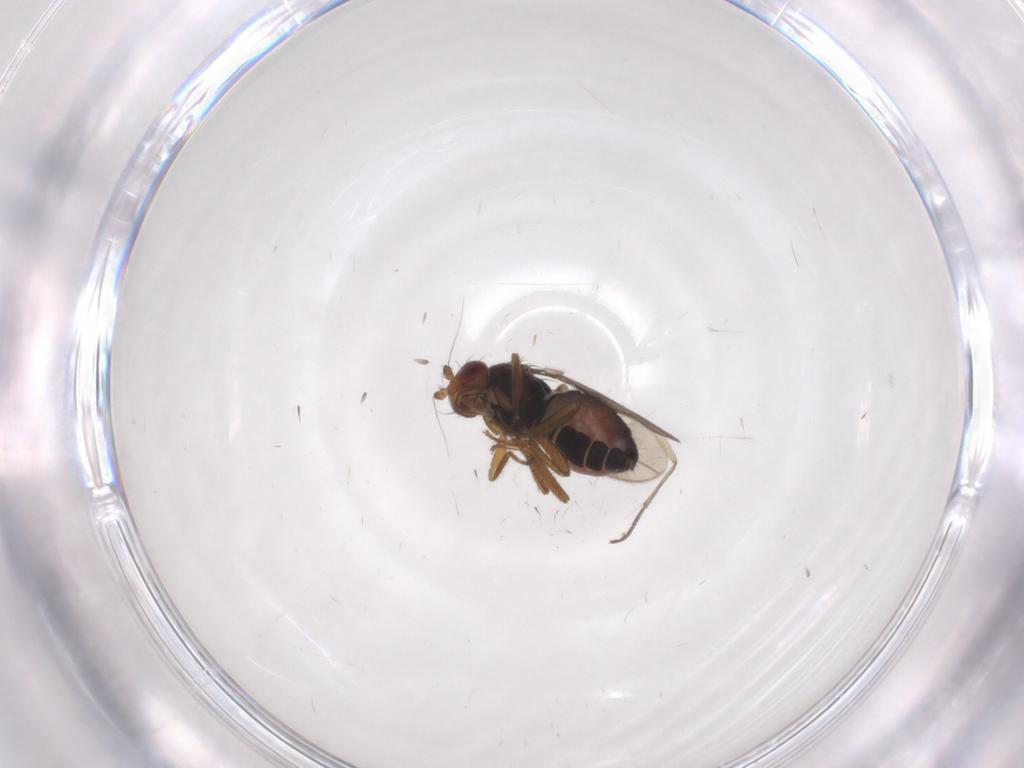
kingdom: Animalia
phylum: Arthropoda
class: Insecta
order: Diptera
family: Sphaeroceridae
